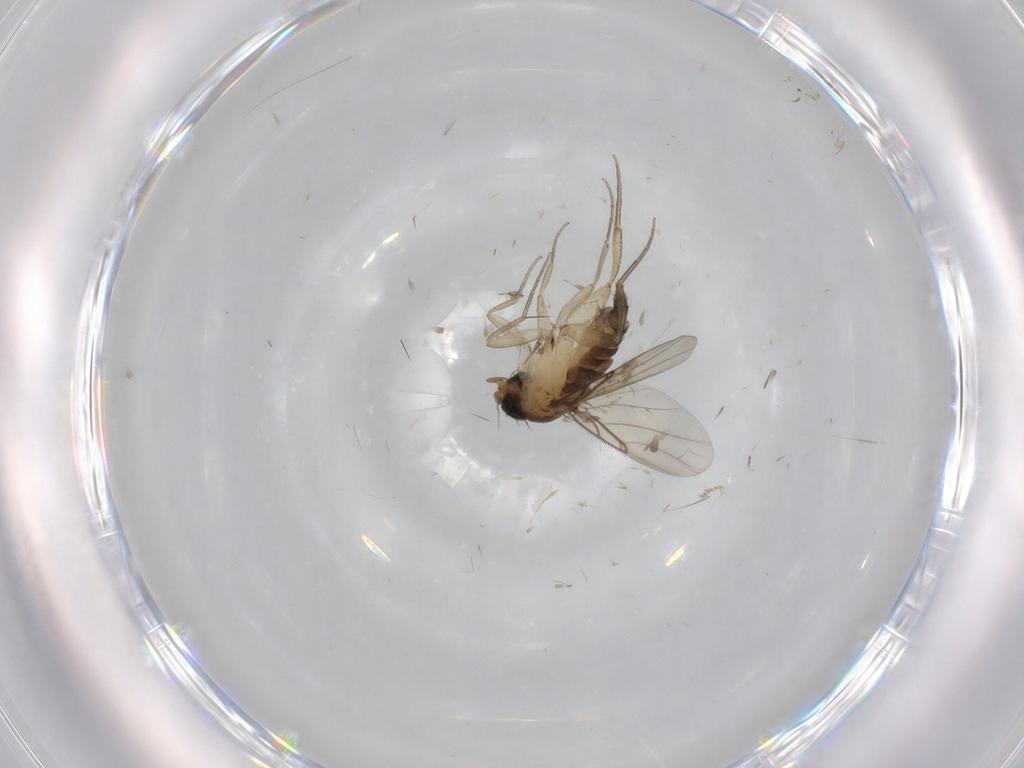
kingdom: Animalia
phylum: Arthropoda
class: Insecta
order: Diptera
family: Phoridae
